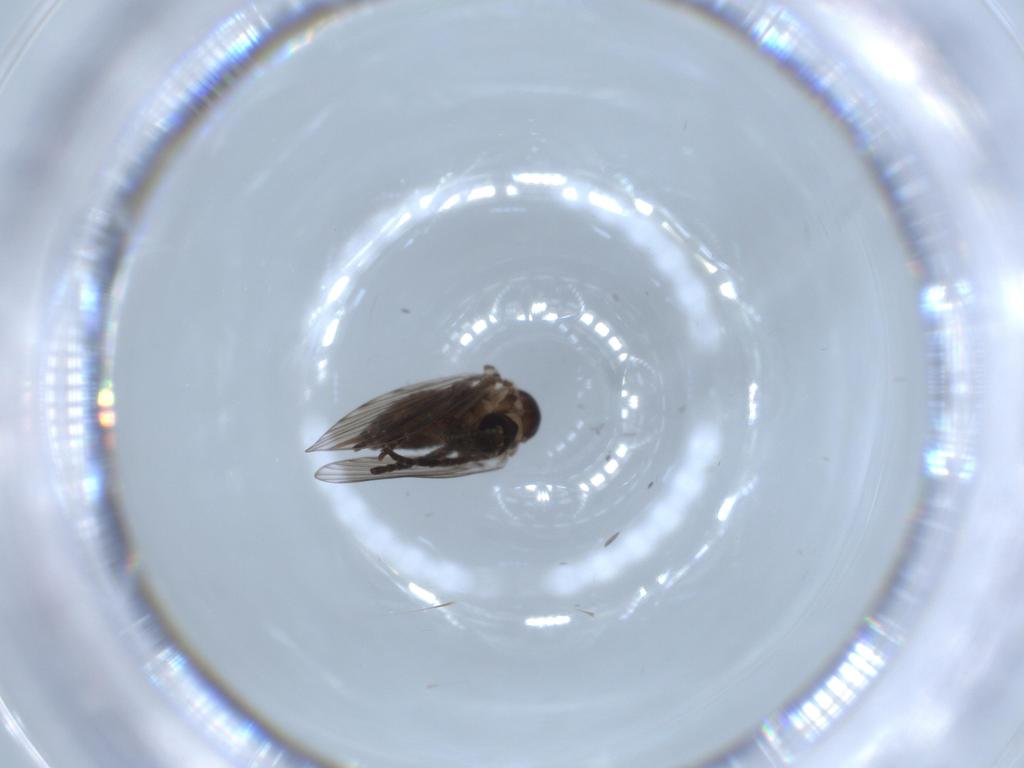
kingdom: Animalia
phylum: Arthropoda
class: Insecta
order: Diptera
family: Psychodidae
